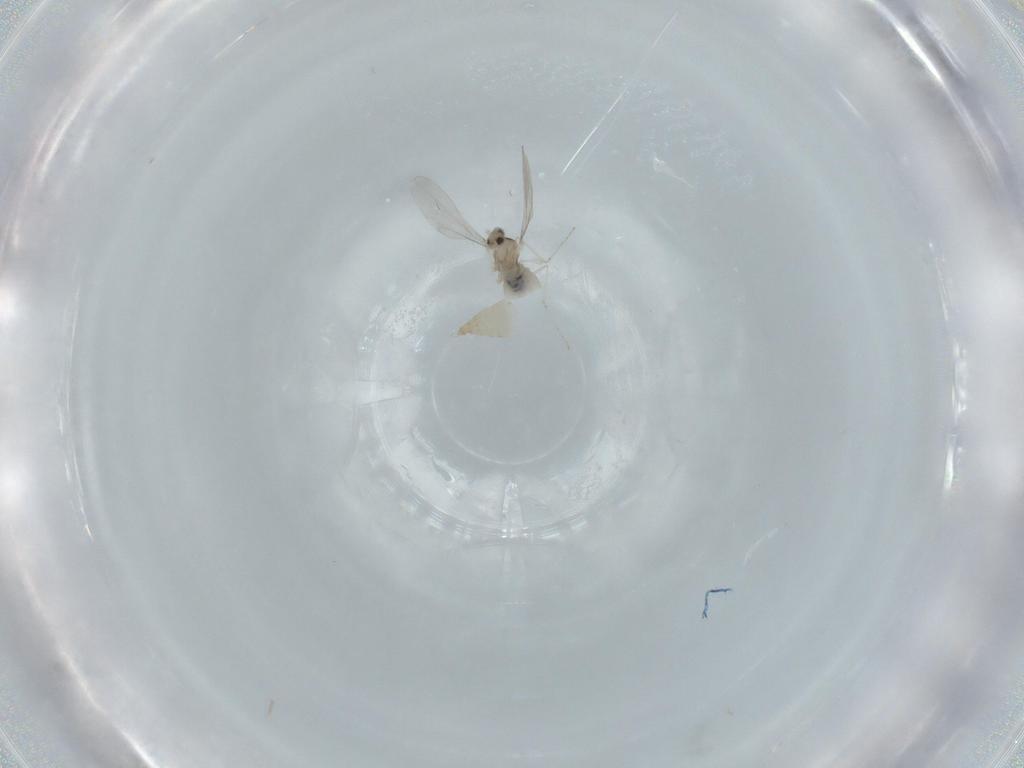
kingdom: Animalia
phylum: Arthropoda
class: Insecta
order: Diptera
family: Cecidomyiidae
